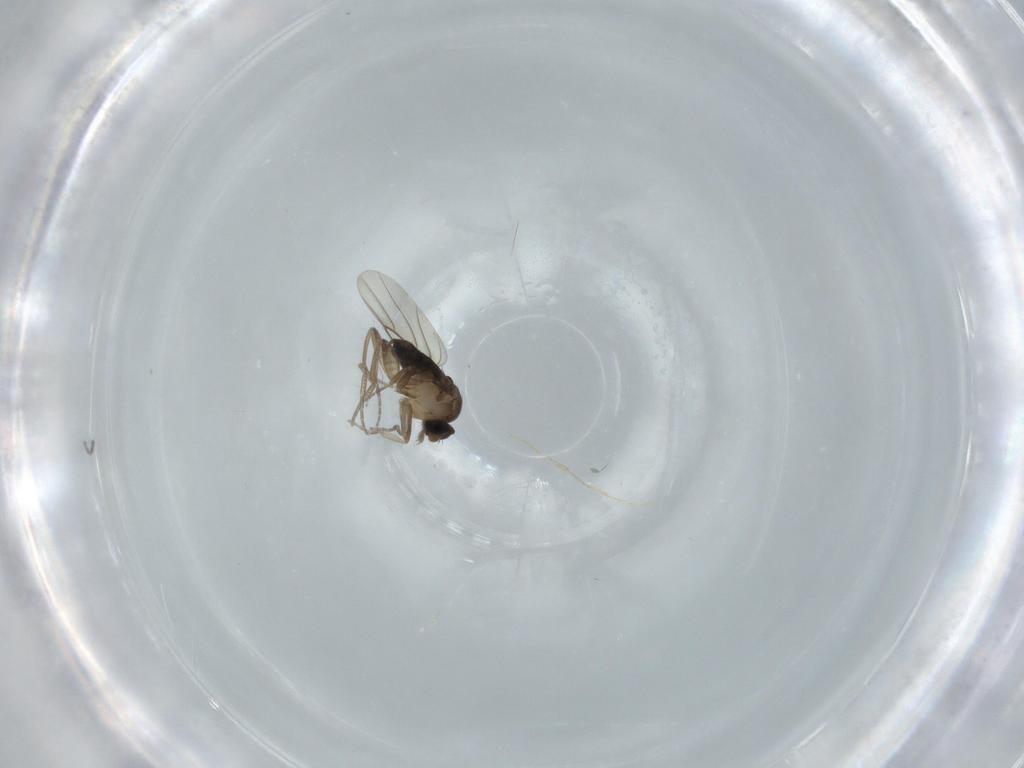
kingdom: Animalia
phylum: Arthropoda
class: Insecta
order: Diptera
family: Phoridae
